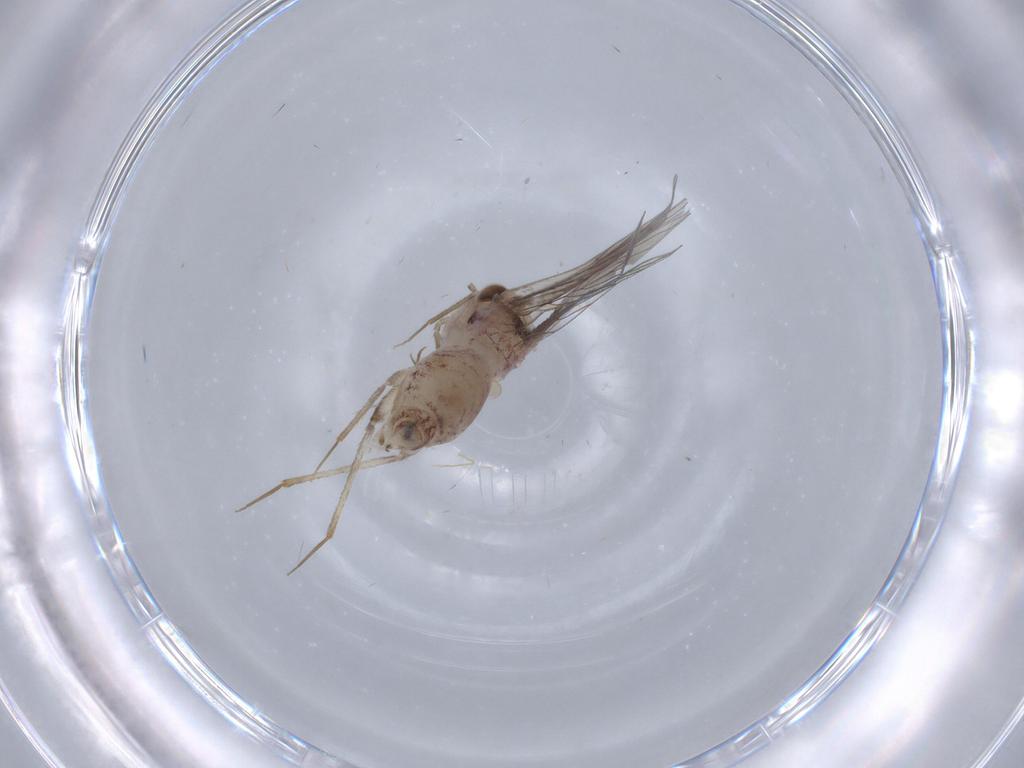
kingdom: Animalia
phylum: Arthropoda
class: Insecta
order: Psocodea
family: Lepidopsocidae
